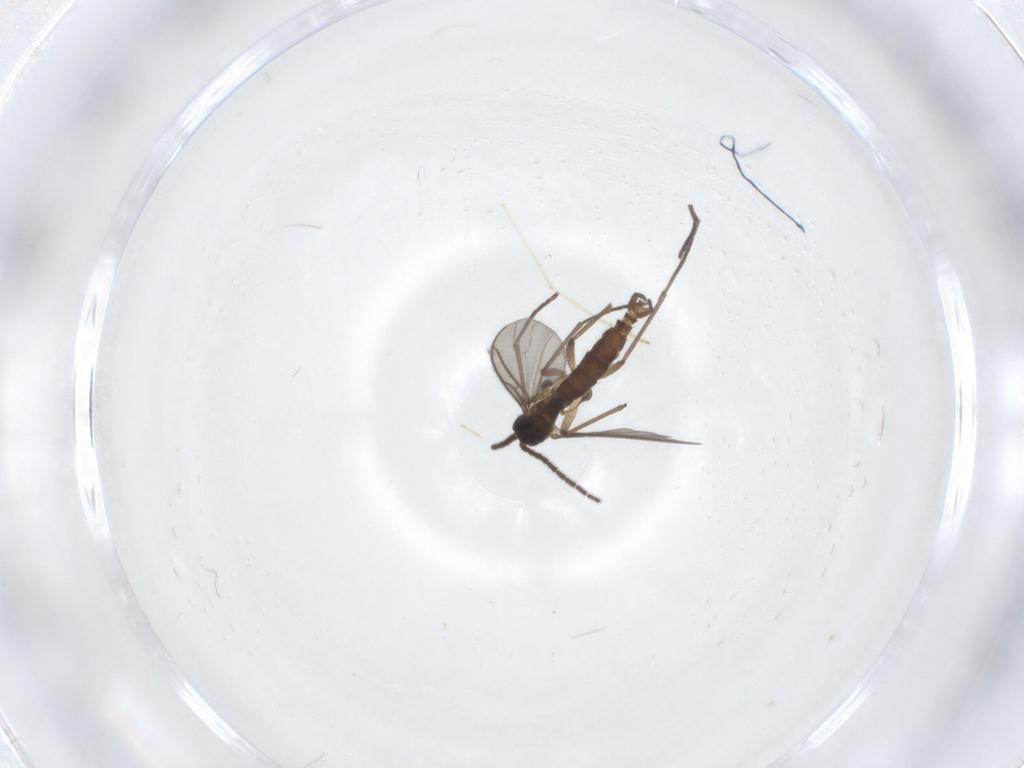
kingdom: Animalia
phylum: Arthropoda
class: Insecta
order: Diptera
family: Sciaridae
